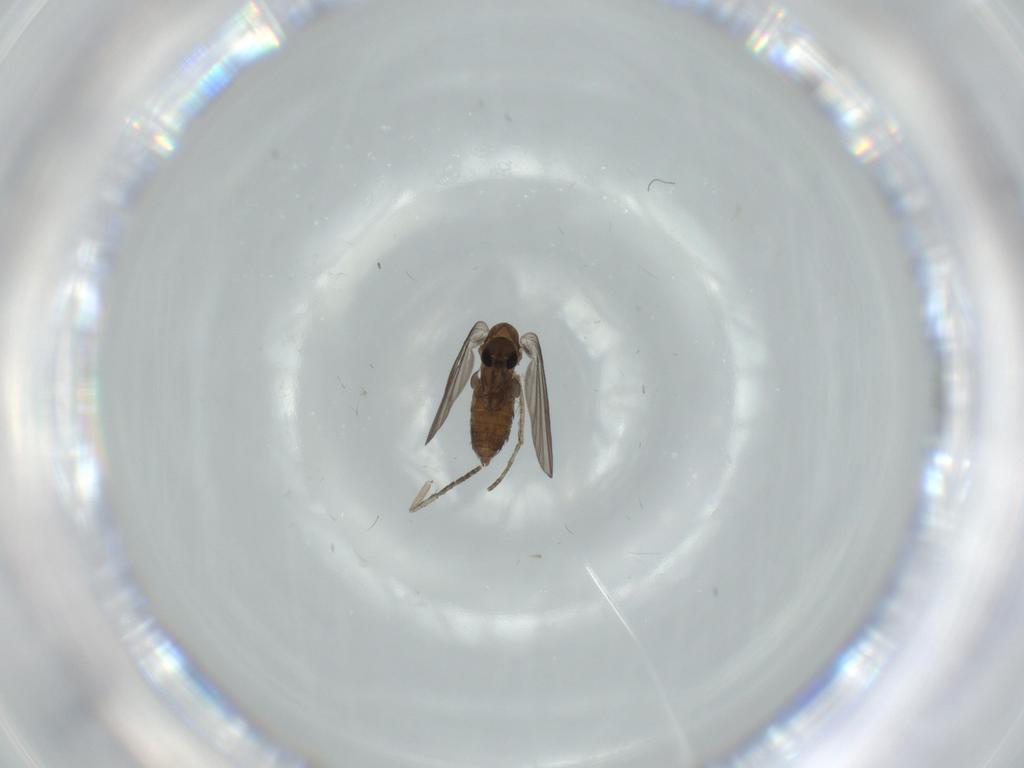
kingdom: Animalia
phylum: Arthropoda
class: Insecta
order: Diptera
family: Psychodidae
